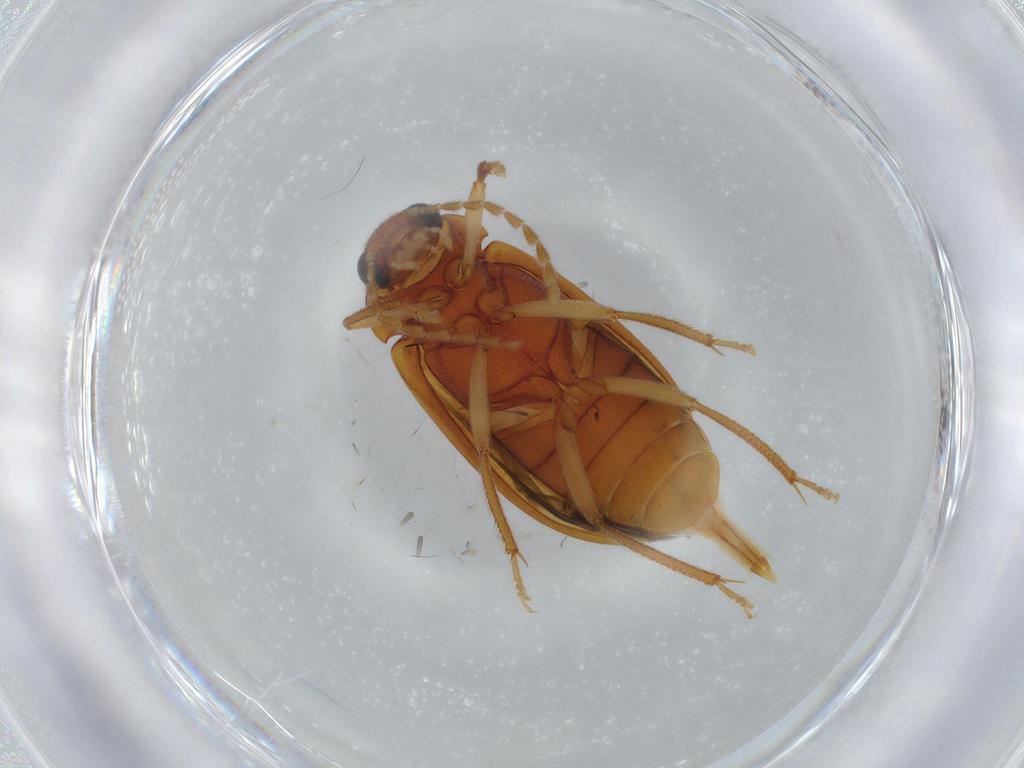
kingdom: Animalia
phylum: Arthropoda
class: Insecta
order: Coleoptera
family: Ptilodactylidae
